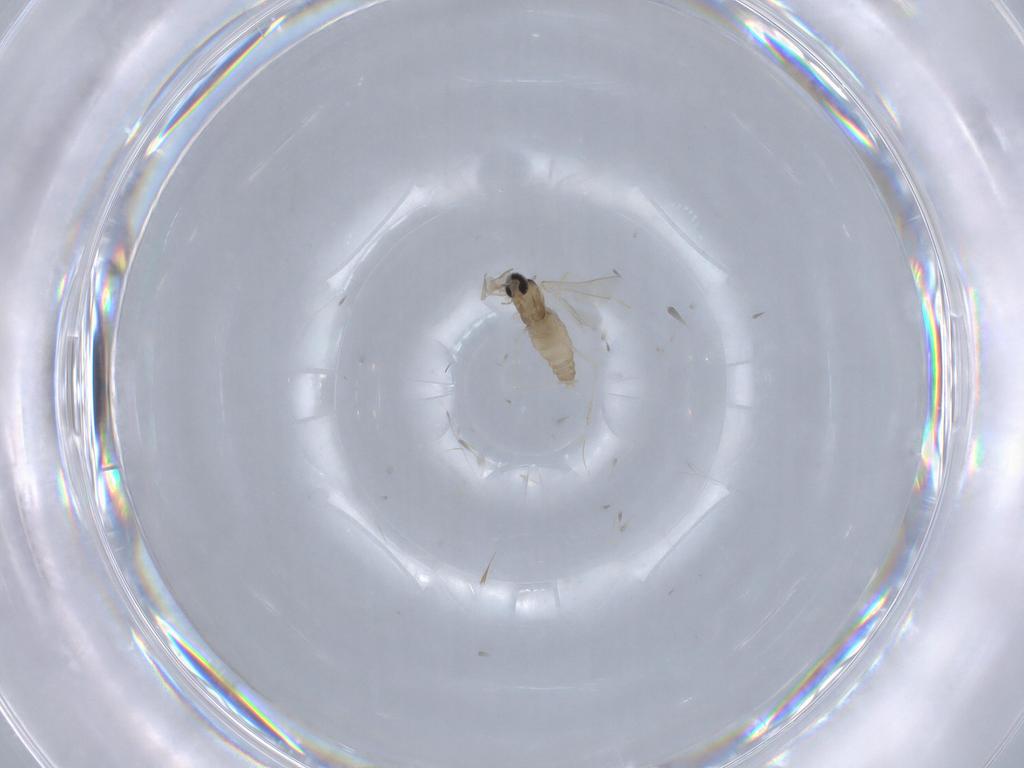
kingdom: Animalia
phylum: Arthropoda
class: Insecta
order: Diptera
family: Cecidomyiidae
